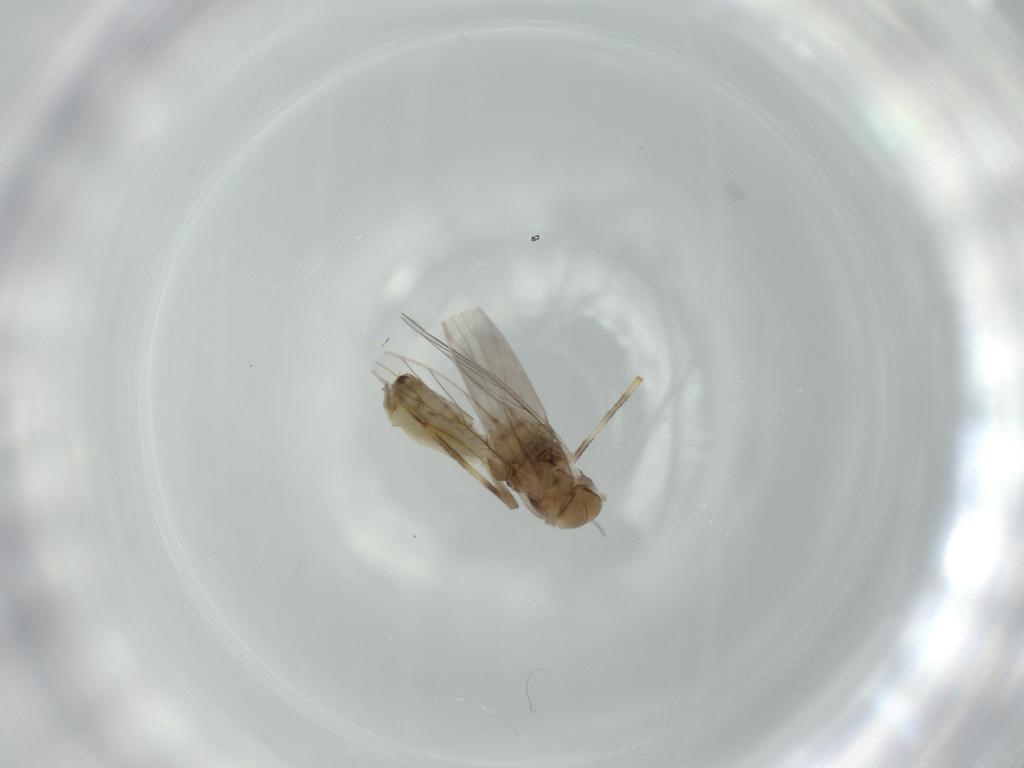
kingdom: Animalia
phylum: Arthropoda
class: Insecta
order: Psocodea
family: Lepidopsocidae
